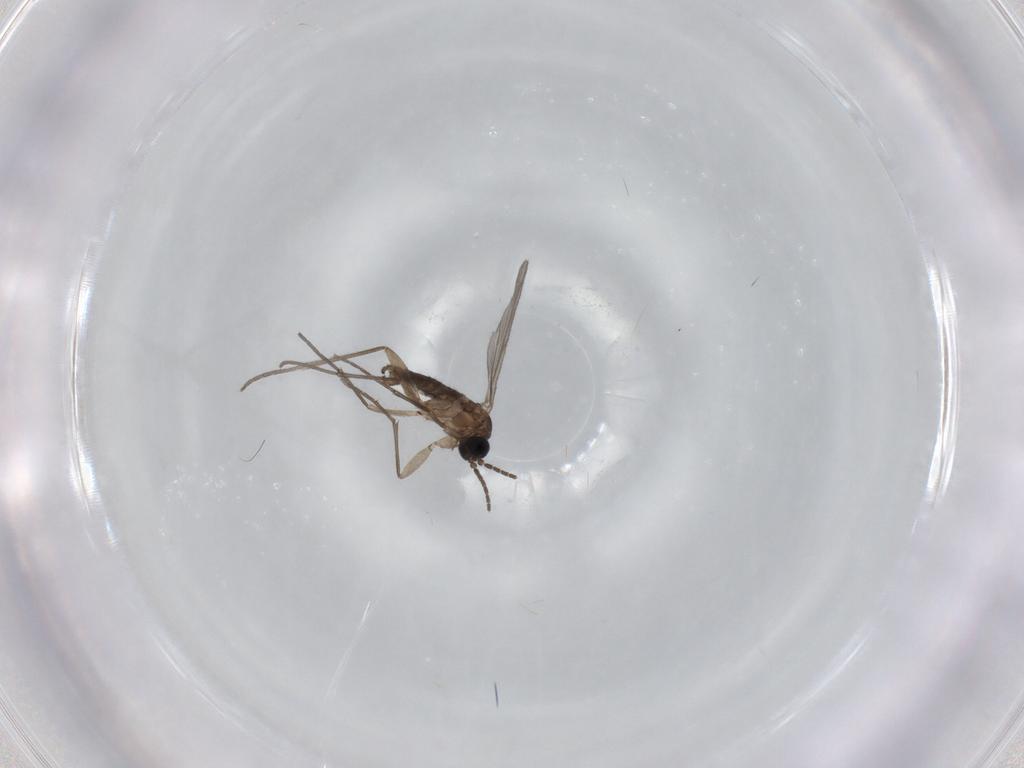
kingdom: Animalia
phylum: Arthropoda
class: Insecta
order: Diptera
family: Sciaridae
